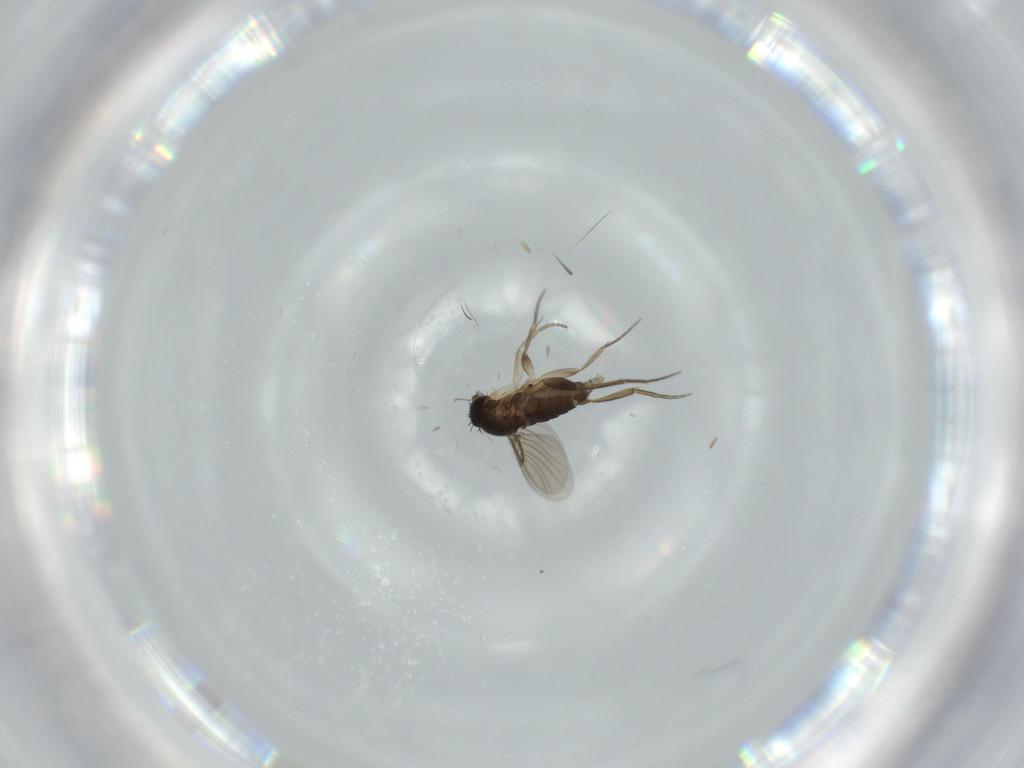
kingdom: Animalia
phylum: Arthropoda
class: Insecta
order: Diptera
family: Phoridae
